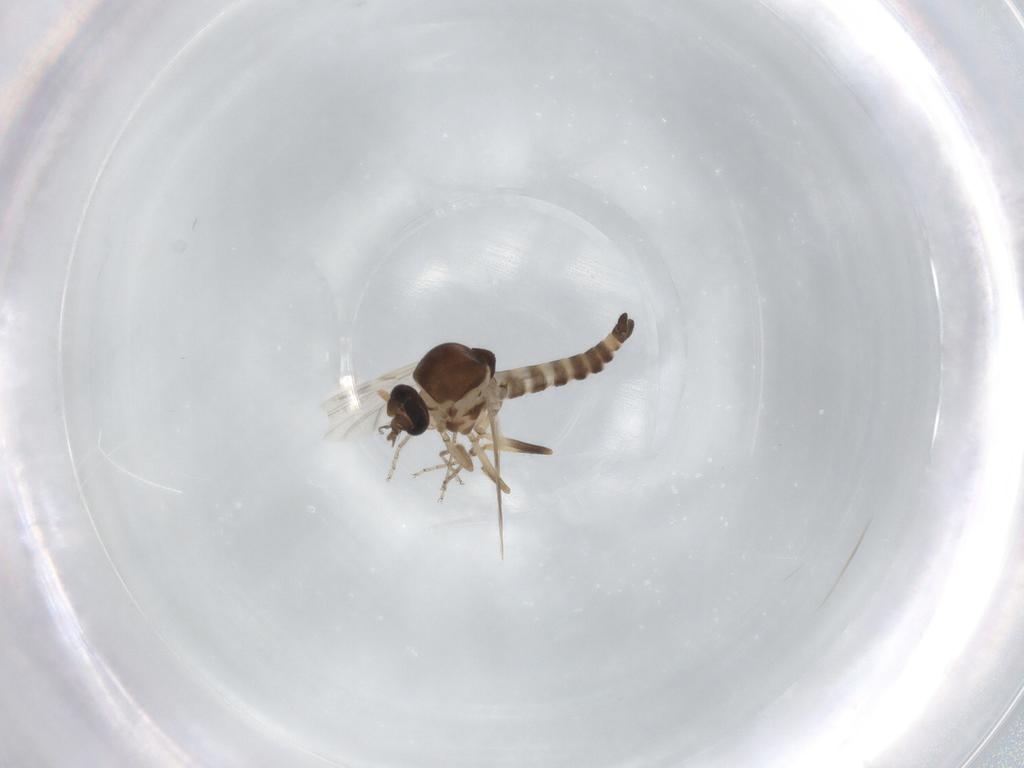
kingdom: Animalia
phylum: Arthropoda
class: Insecta
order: Diptera
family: Ceratopogonidae
